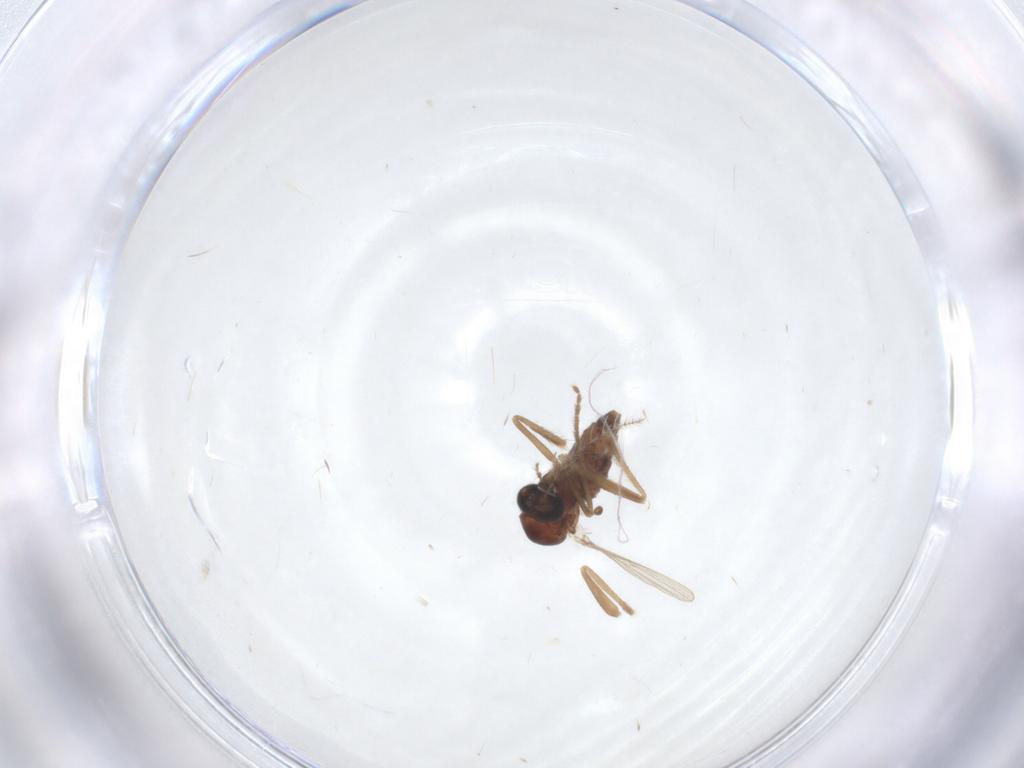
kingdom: Animalia
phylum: Arthropoda
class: Insecta
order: Diptera
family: Corethrellidae
